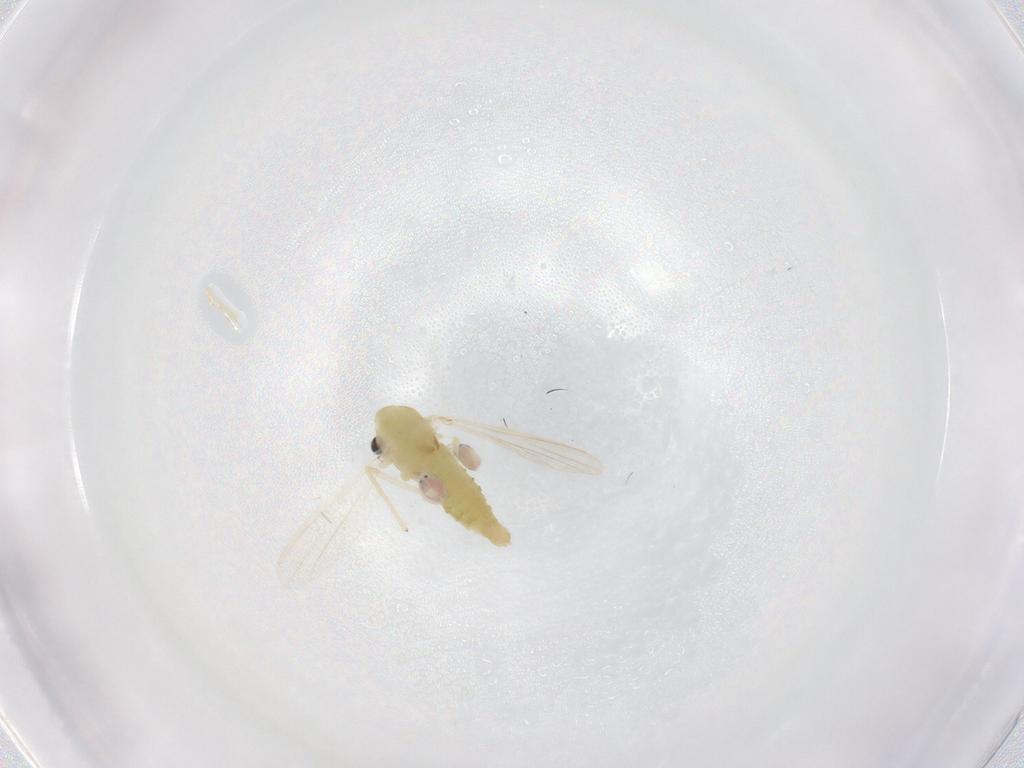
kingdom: Animalia
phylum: Arthropoda
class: Insecta
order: Diptera
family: Chironomidae
